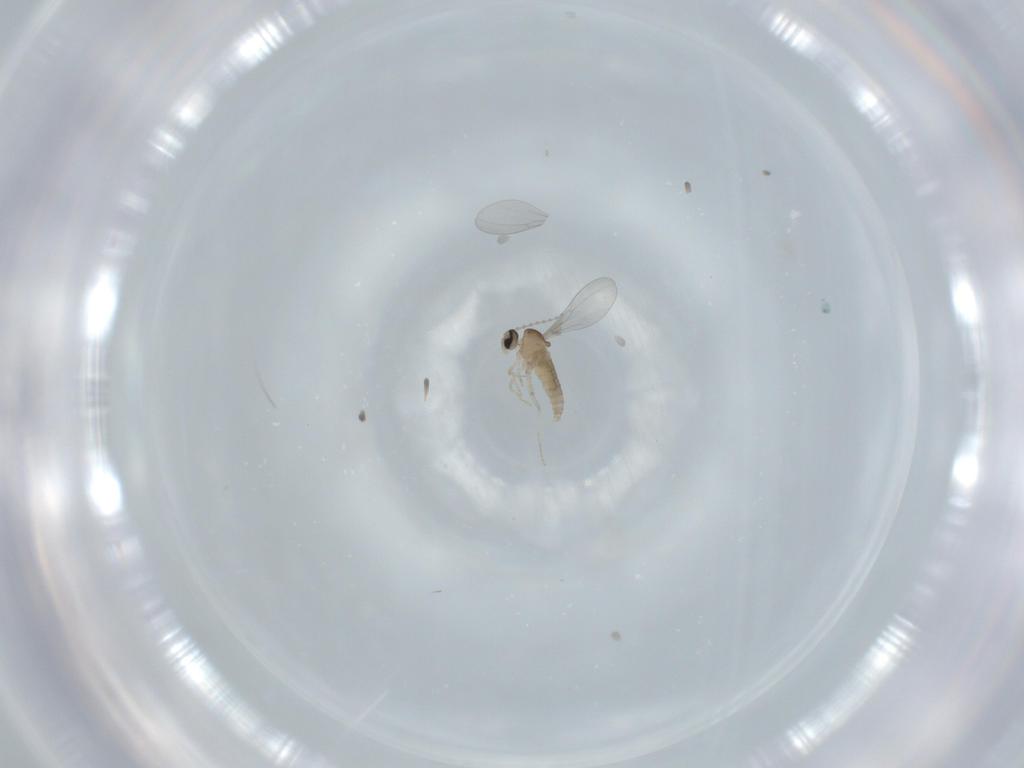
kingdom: Animalia
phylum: Arthropoda
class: Insecta
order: Diptera
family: Cecidomyiidae
